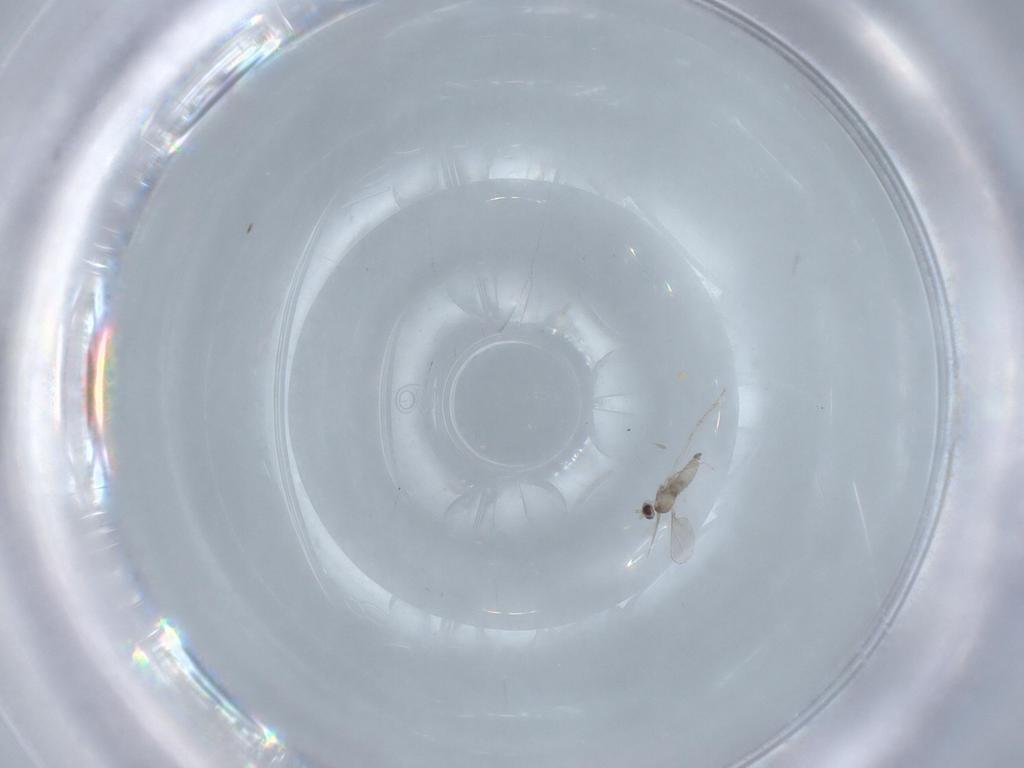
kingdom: Animalia
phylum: Arthropoda
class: Insecta
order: Diptera
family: Cecidomyiidae
